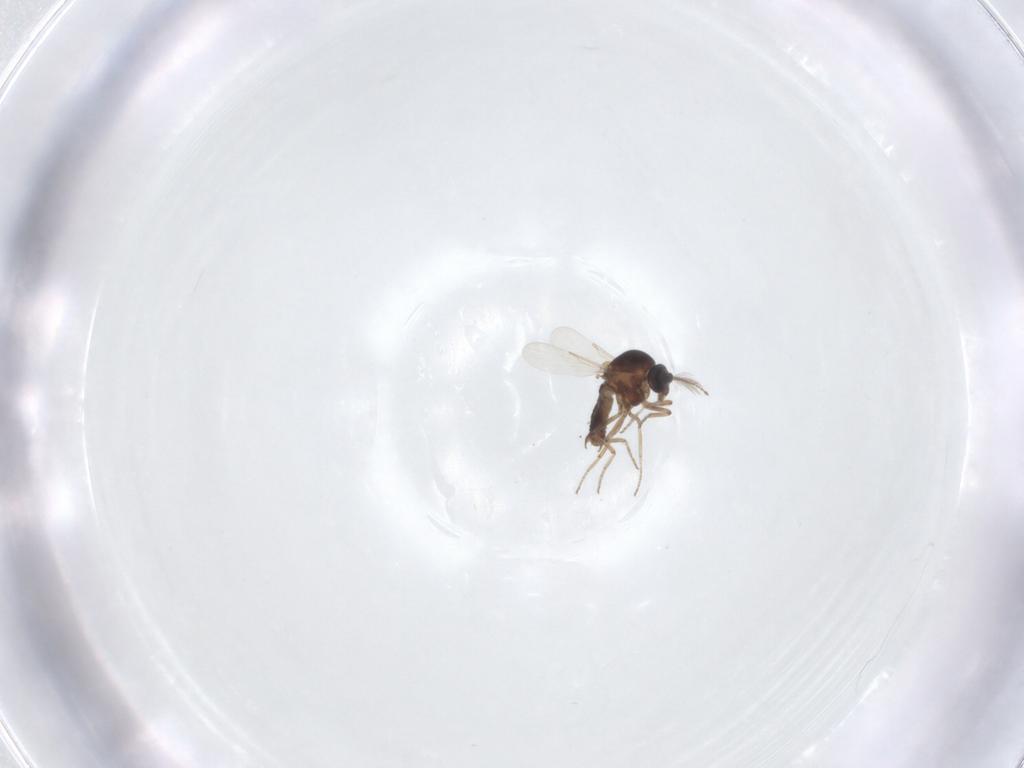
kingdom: Animalia
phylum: Arthropoda
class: Insecta
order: Diptera
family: Ceratopogonidae
